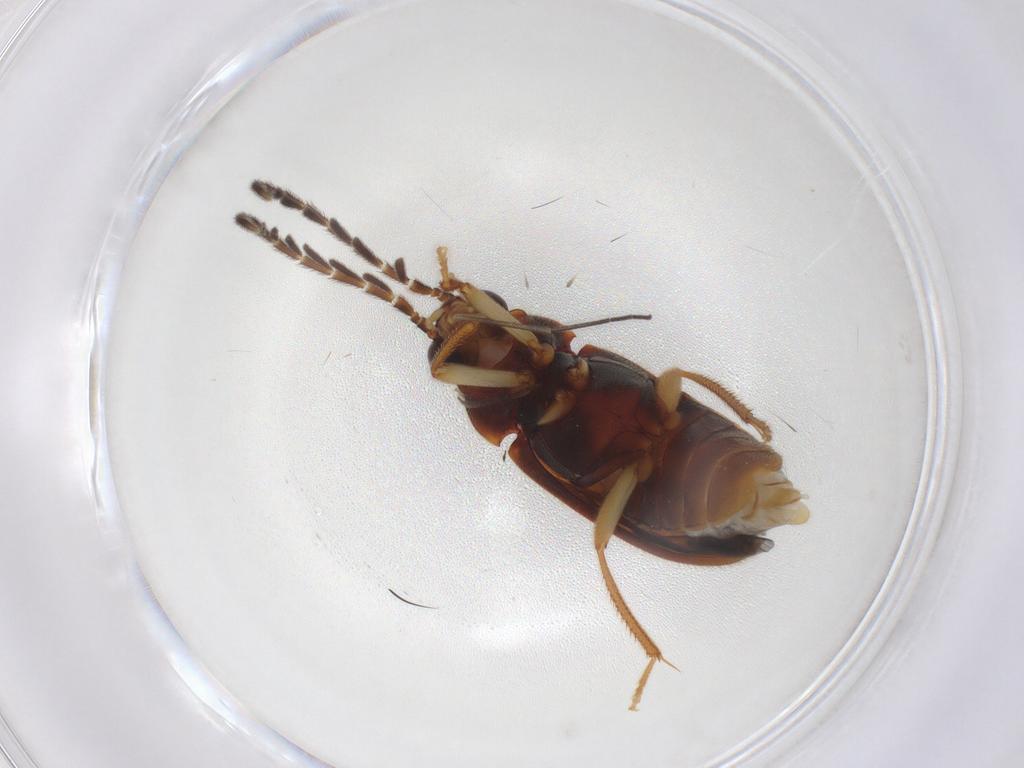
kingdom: Animalia
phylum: Arthropoda
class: Insecta
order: Coleoptera
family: Ptilodactylidae
